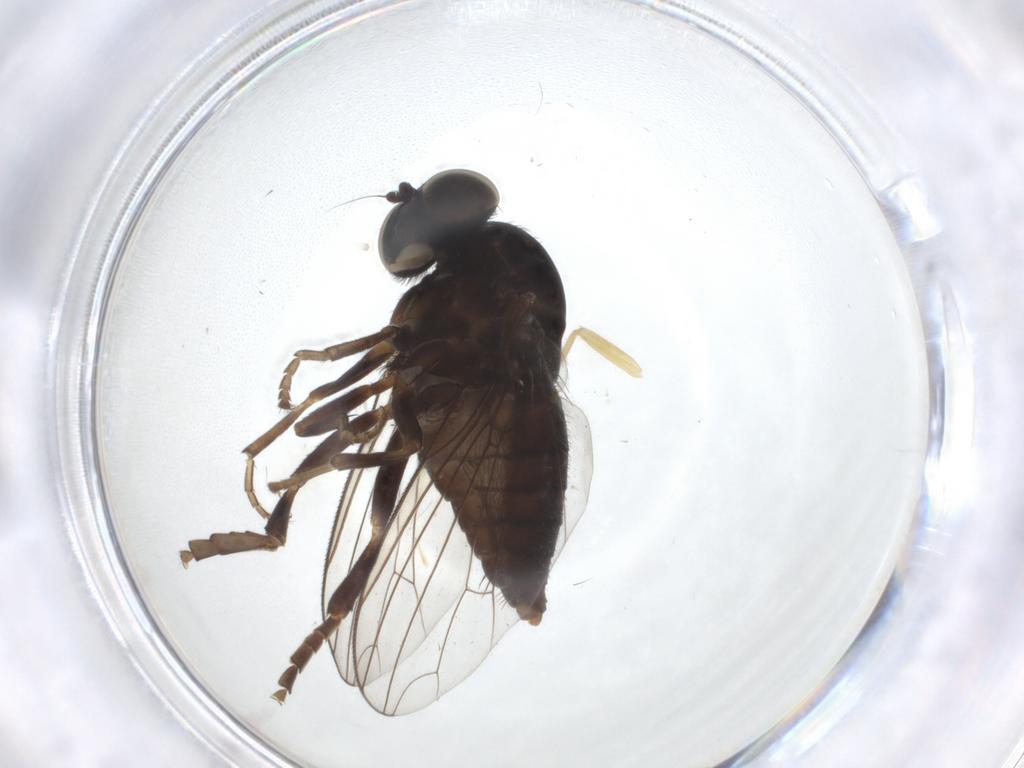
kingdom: Animalia
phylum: Arthropoda
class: Insecta
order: Diptera
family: Platypezidae
